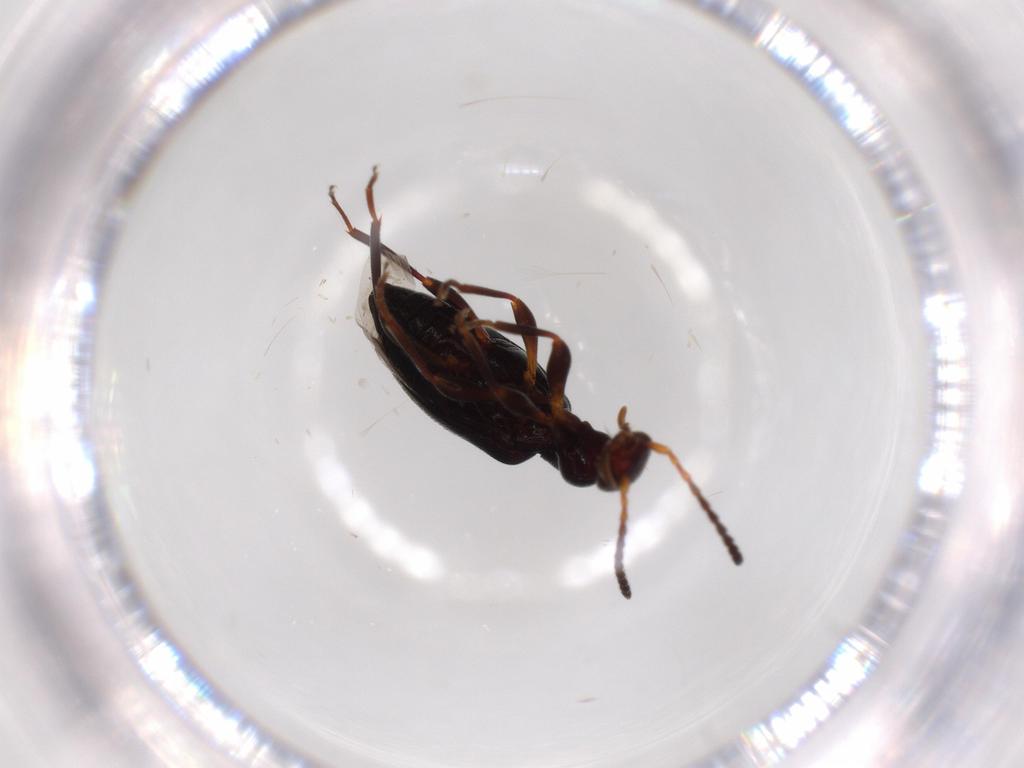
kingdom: Animalia
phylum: Arthropoda
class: Insecta
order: Coleoptera
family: Anthicidae
